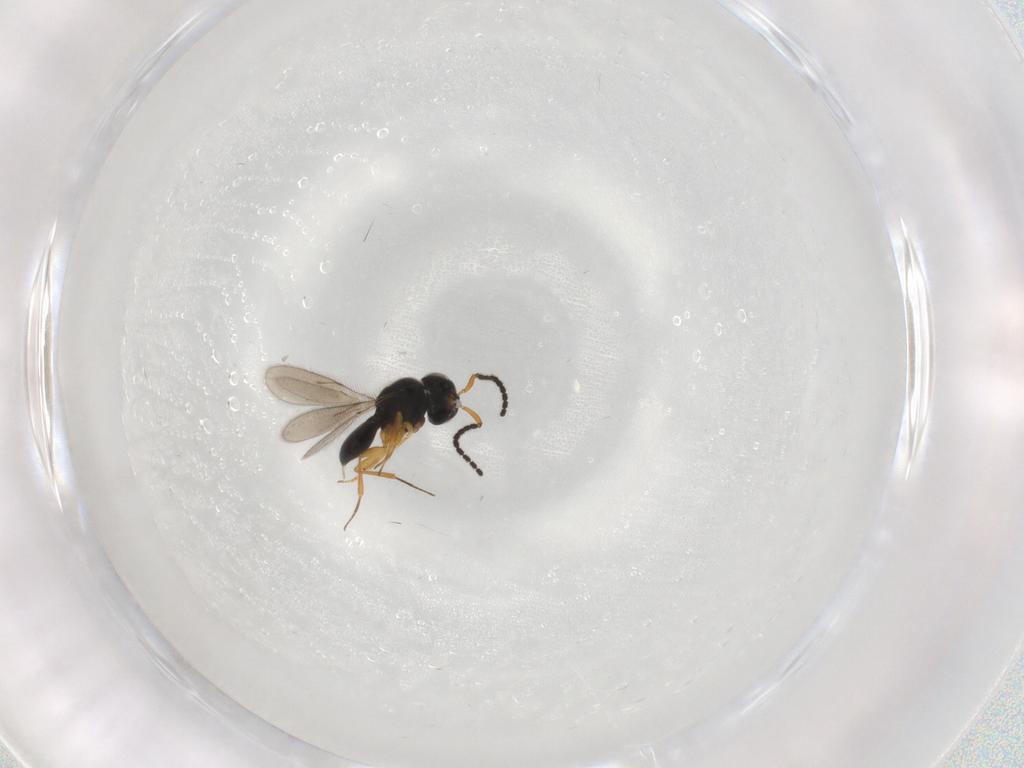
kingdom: Animalia
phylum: Arthropoda
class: Insecta
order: Hymenoptera
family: Scelionidae
